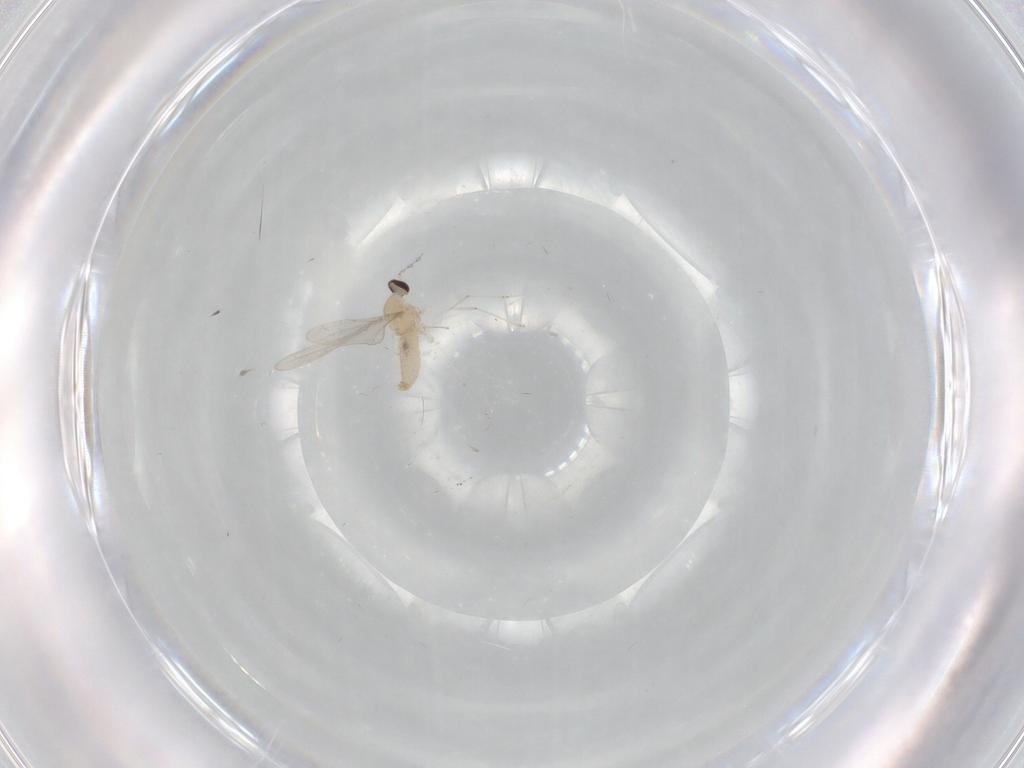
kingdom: Animalia
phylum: Arthropoda
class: Insecta
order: Diptera
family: Cecidomyiidae
